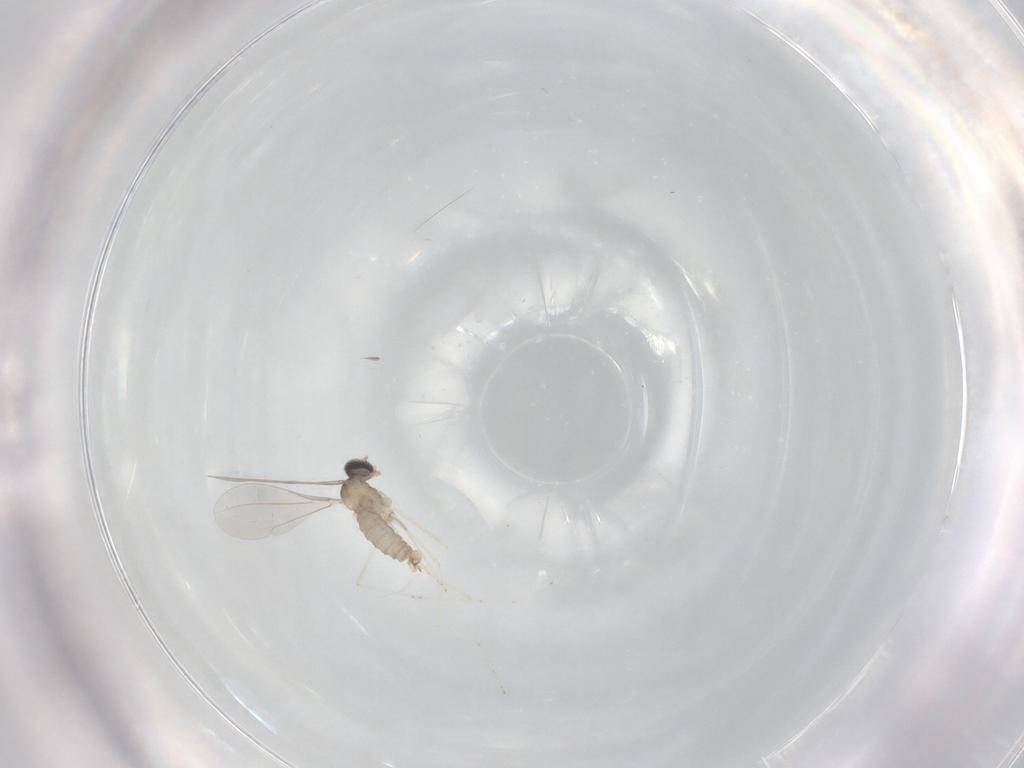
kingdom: Animalia
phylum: Arthropoda
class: Insecta
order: Diptera
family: Cecidomyiidae
